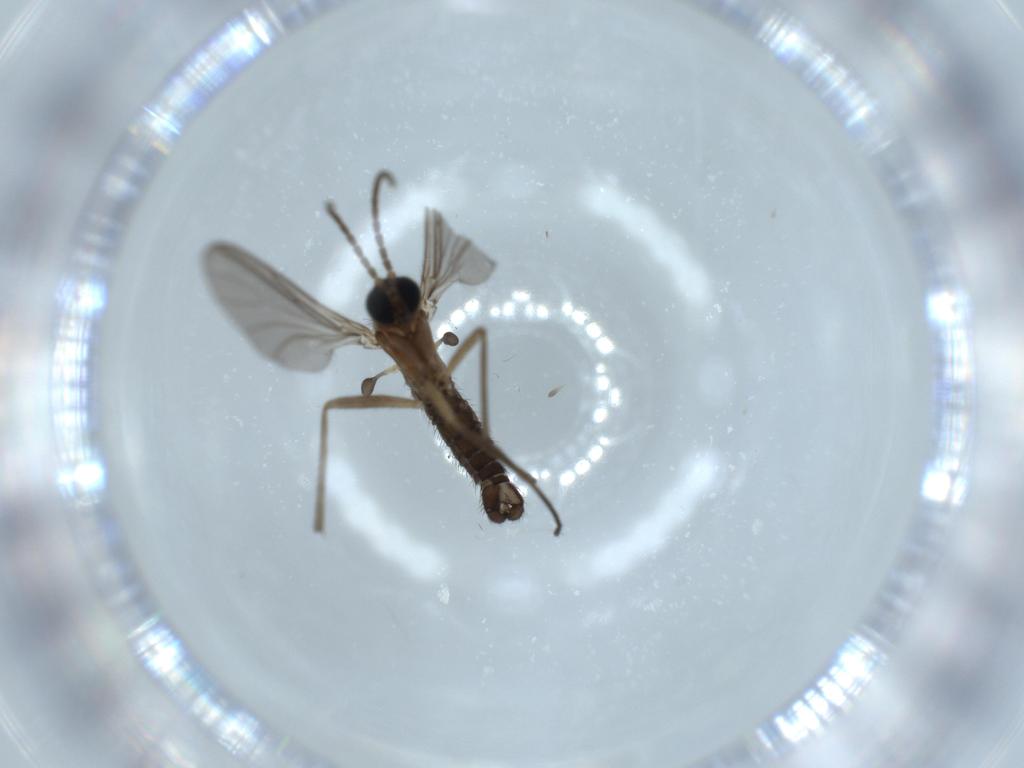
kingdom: Animalia
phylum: Arthropoda
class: Insecta
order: Diptera
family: Sciaridae
